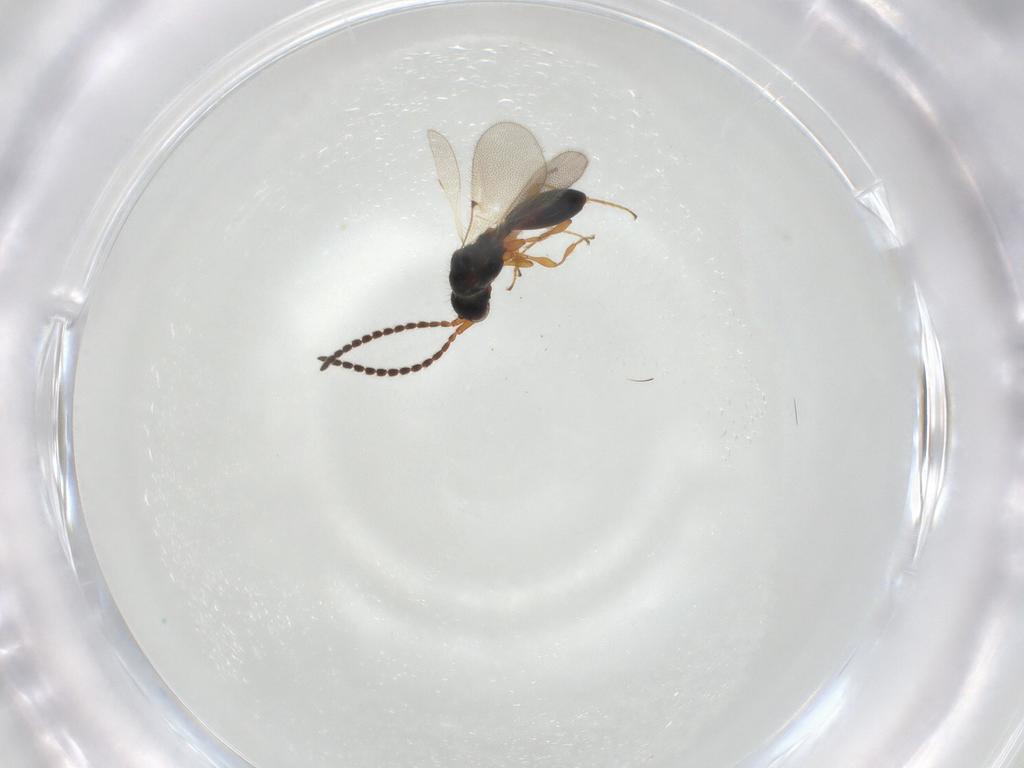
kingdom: Animalia
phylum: Arthropoda
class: Insecta
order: Hymenoptera
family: Diapriidae
